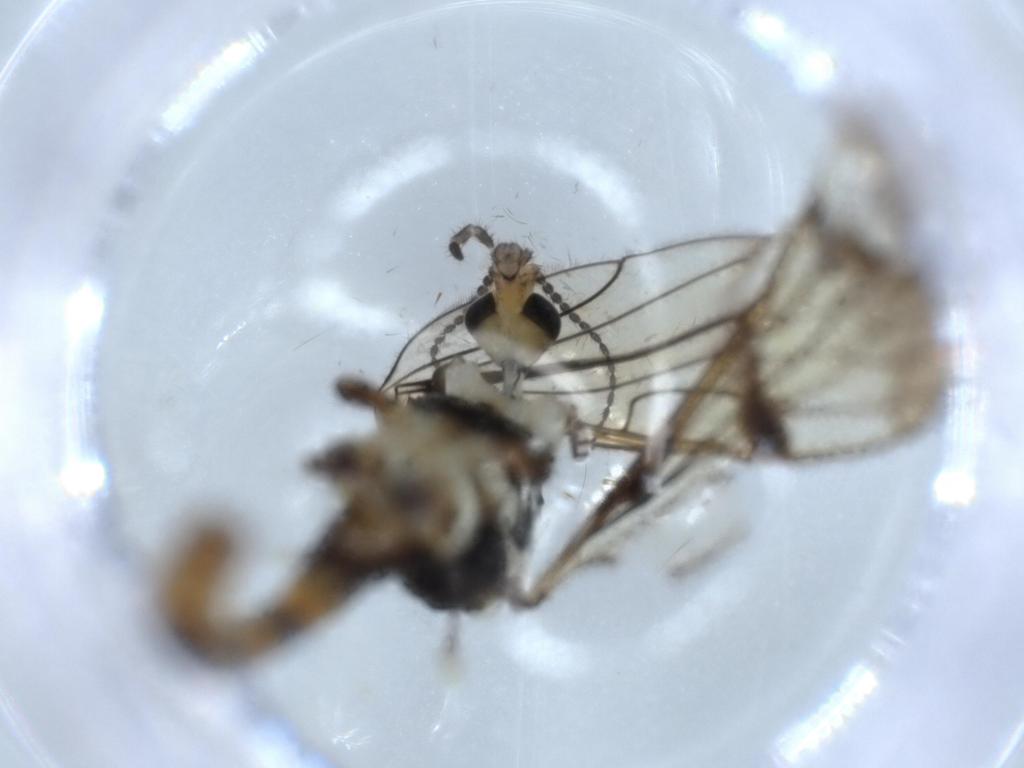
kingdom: Animalia
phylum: Arthropoda
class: Insecta
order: Diptera
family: Limoniidae
